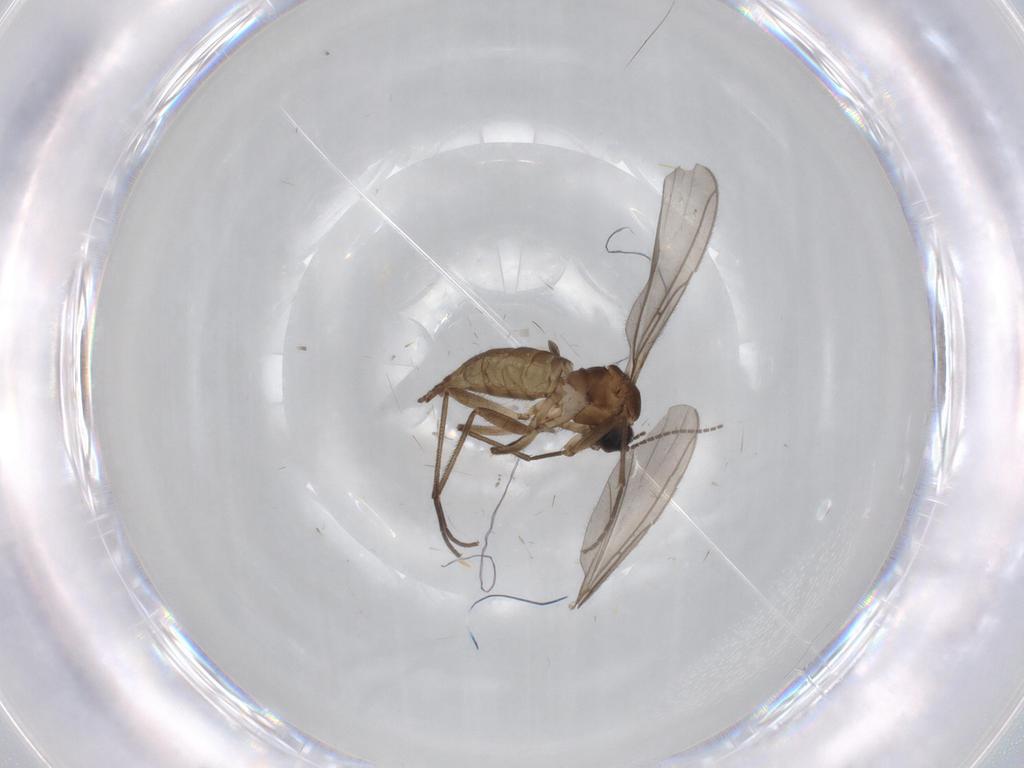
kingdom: Animalia
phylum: Arthropoda
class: Insecta
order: Diptera
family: Sciaridae
